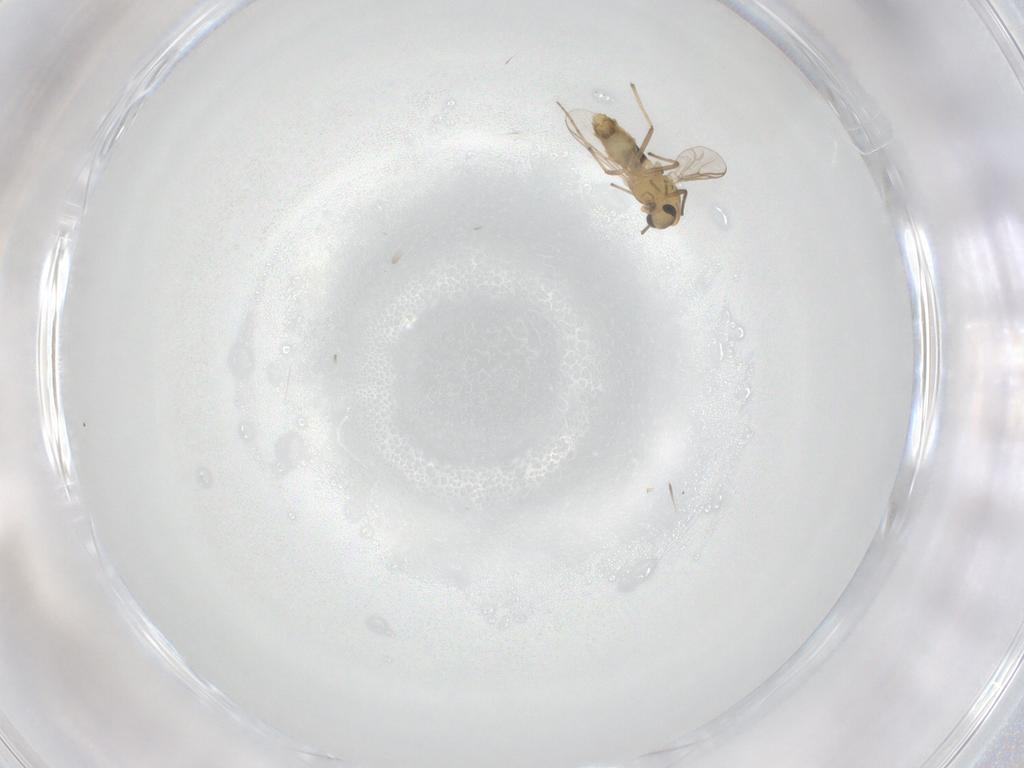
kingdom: Animalia
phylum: Arthropoda
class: Insecta
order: Diptera
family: Chironomidae
